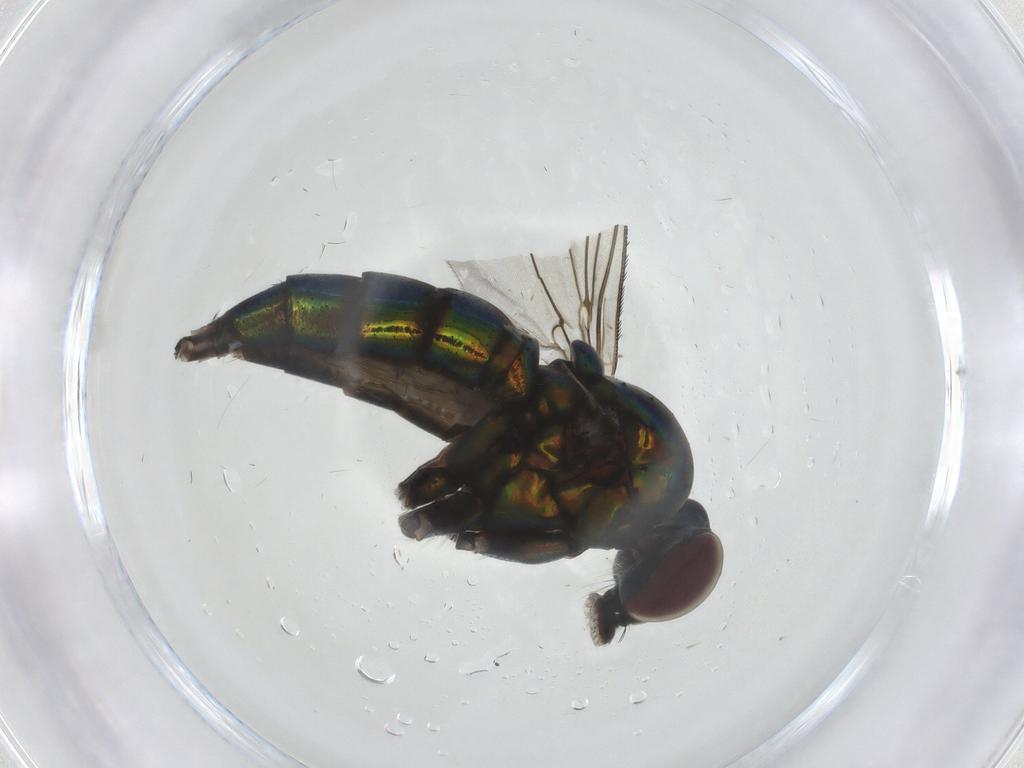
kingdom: Animalia
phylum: Arthropoda
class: Insecta
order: Diptera
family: Dolichopodidae
